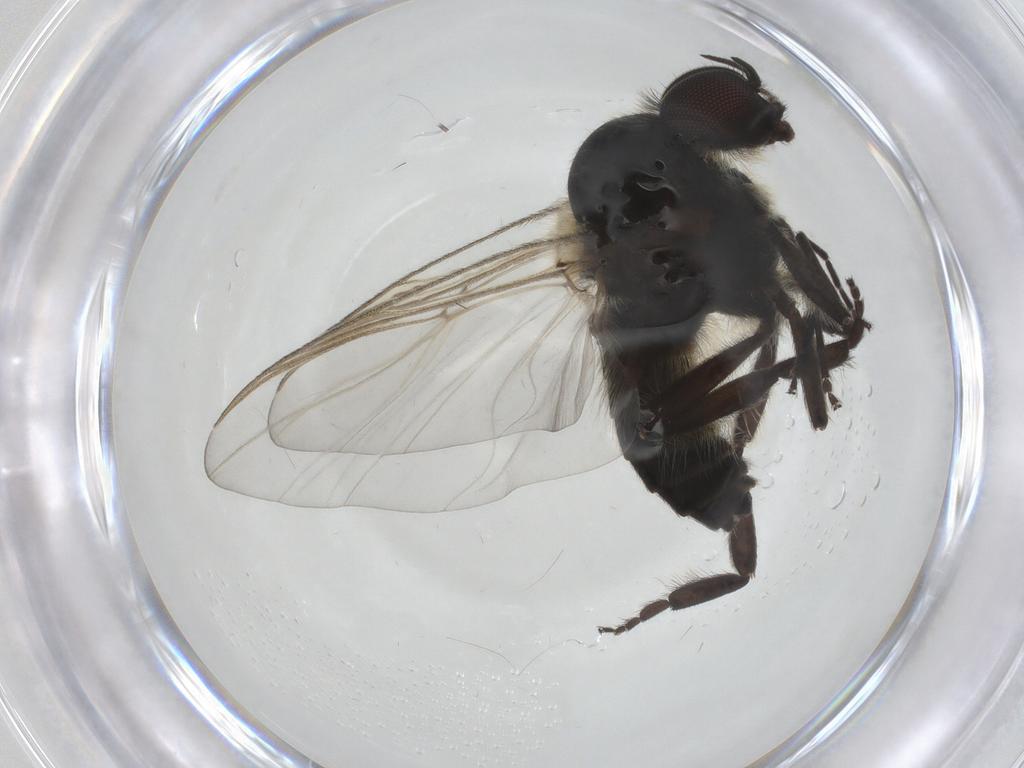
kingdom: Animalia
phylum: Arthropoda
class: Insecta
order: Diptera
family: Simuliidae
